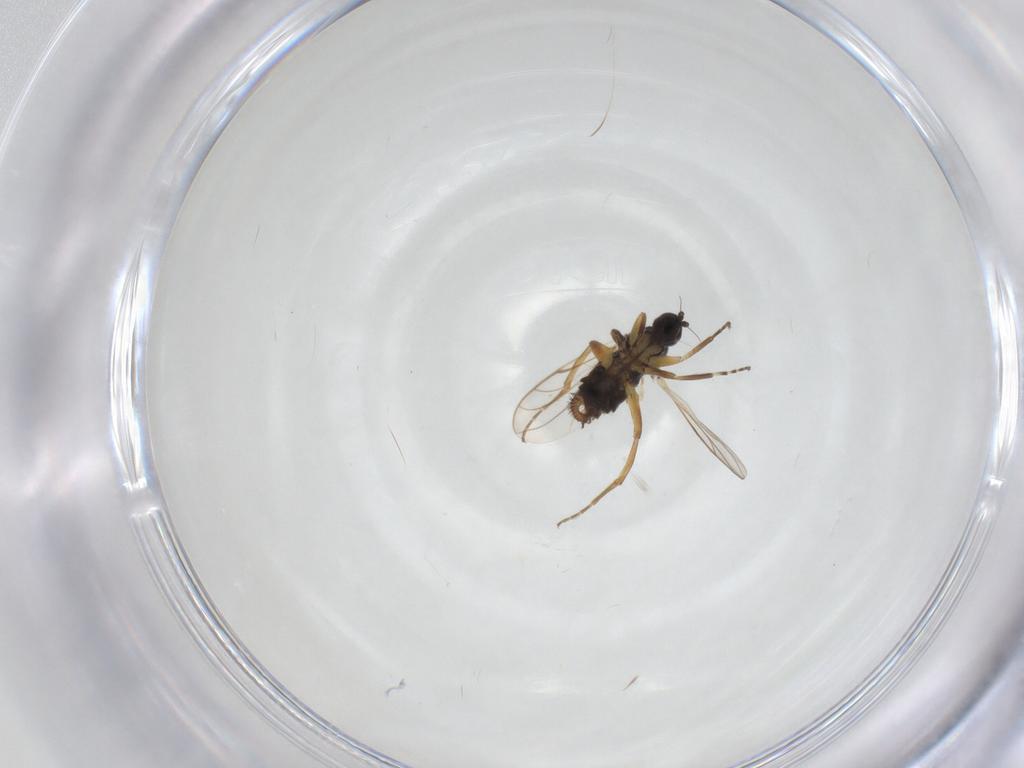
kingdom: Animalia
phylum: Arthropoda
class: Insecta
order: Diptera
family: Hybotidae
